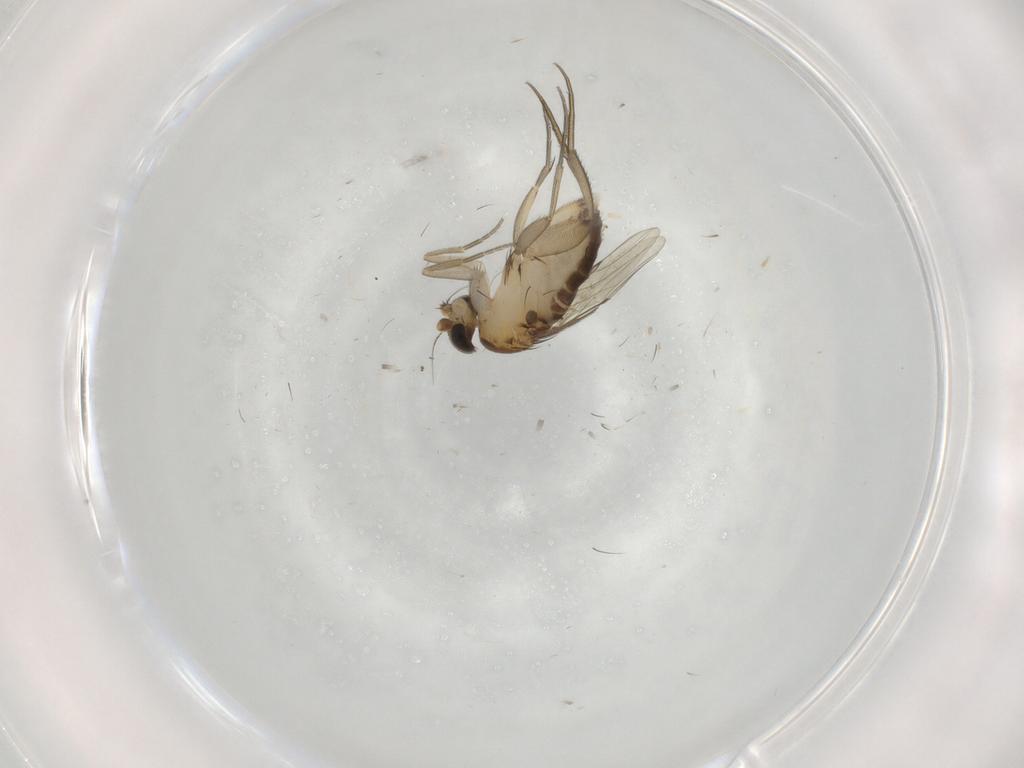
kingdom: Animalia
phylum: Arthropoda
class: Insecta
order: Diptera
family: Phoridae
